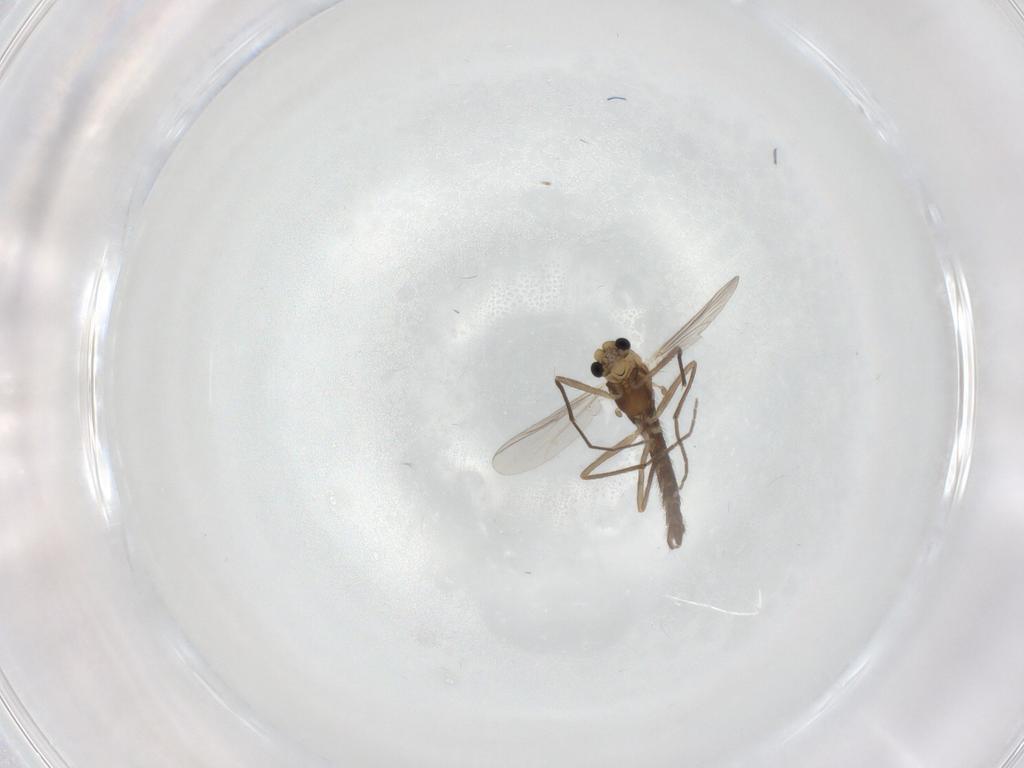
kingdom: Animalia
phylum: Arthropoda
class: Insecta
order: Diptera
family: Chironomidae
